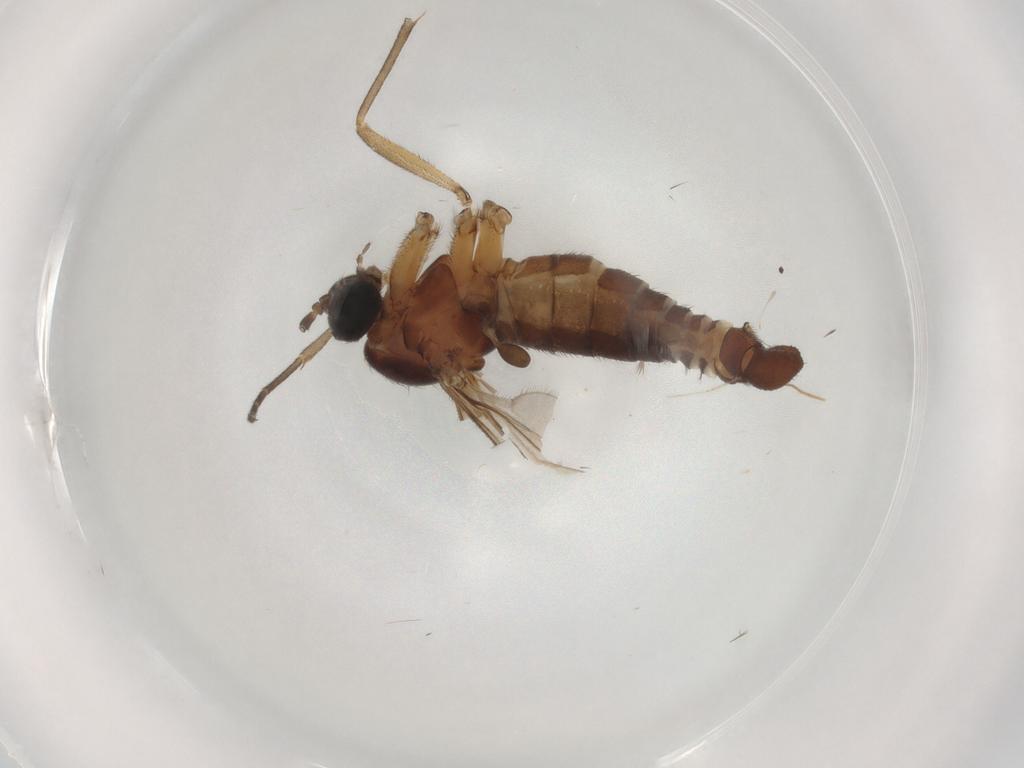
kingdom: Animalia
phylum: Arthropoda
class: Insecta
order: Diptera
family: Sciaridae
